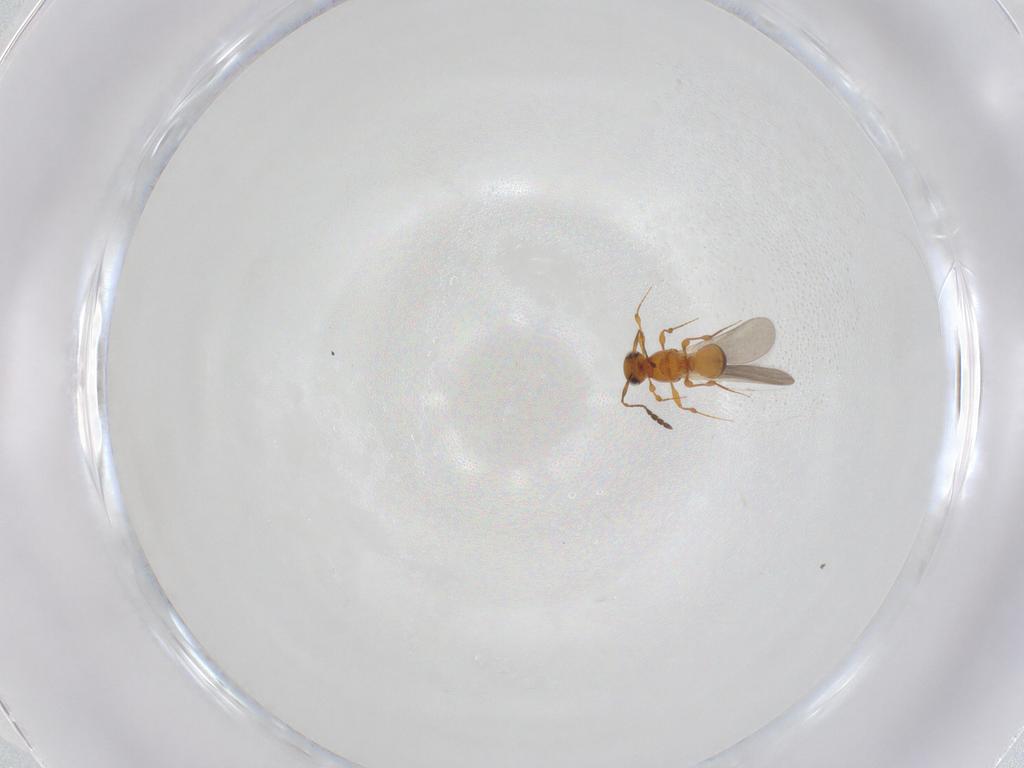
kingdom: Animalia
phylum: Arthropoda
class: Insecta
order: Hymenoptera
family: Platygastridae
